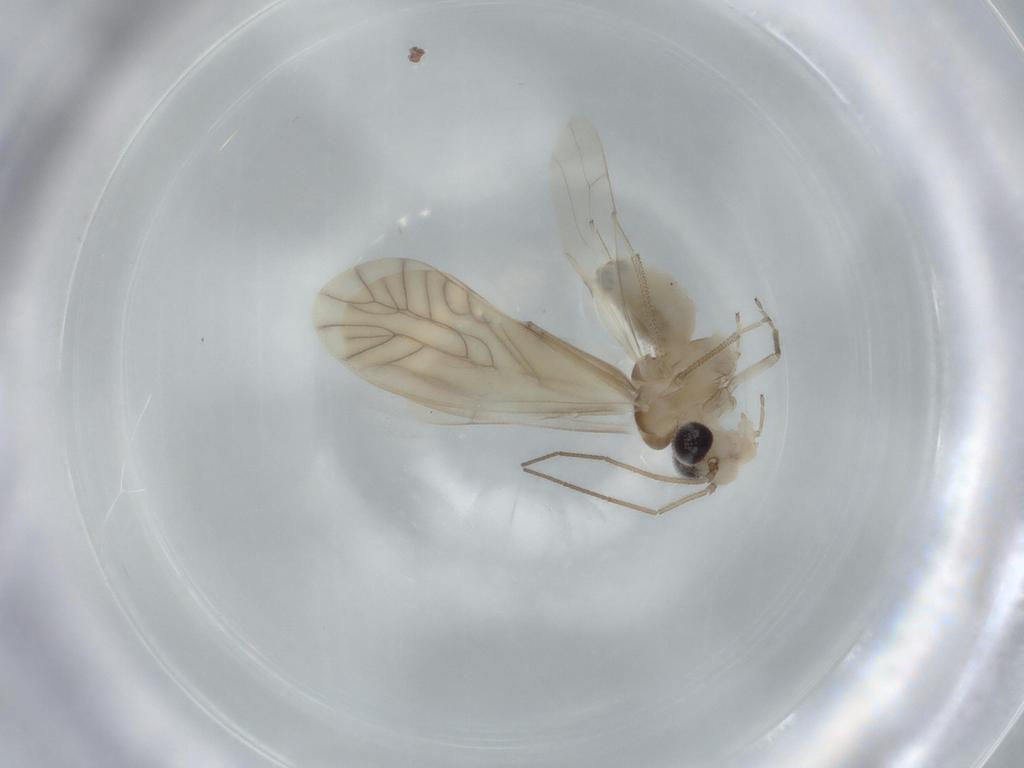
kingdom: Animalia
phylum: Arthropoda
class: Insecta
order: Psocodea
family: Caeciliusidae
